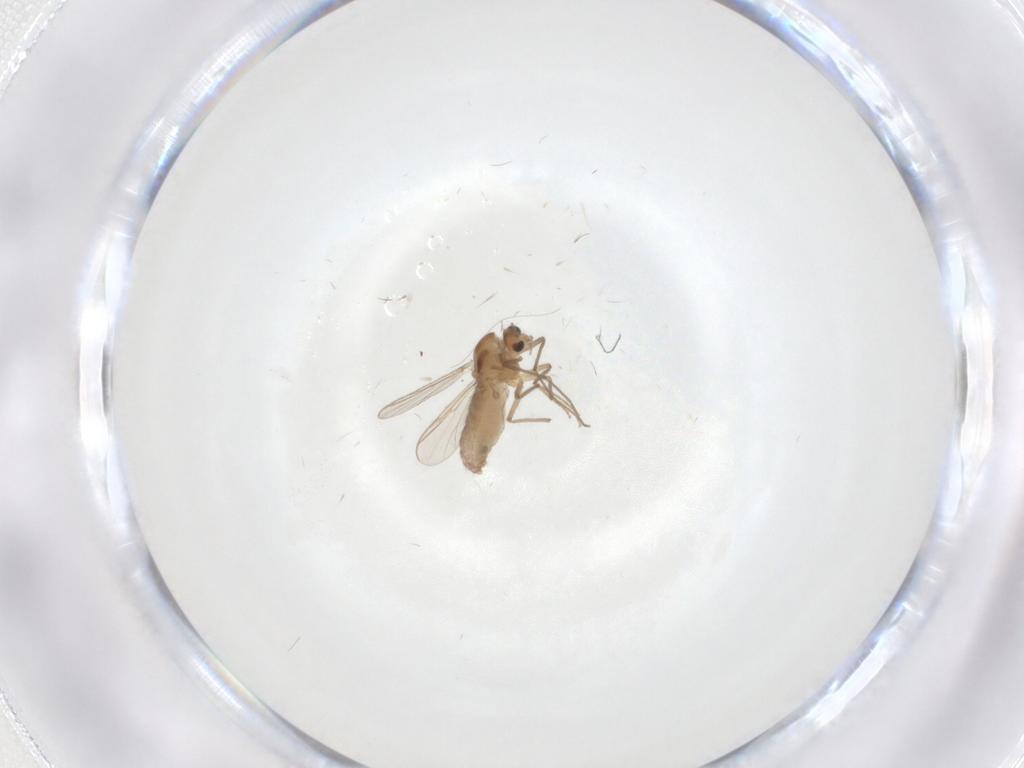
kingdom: Animalia
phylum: Arthropoda
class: Insecta
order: Diptera
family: Chironomidae
